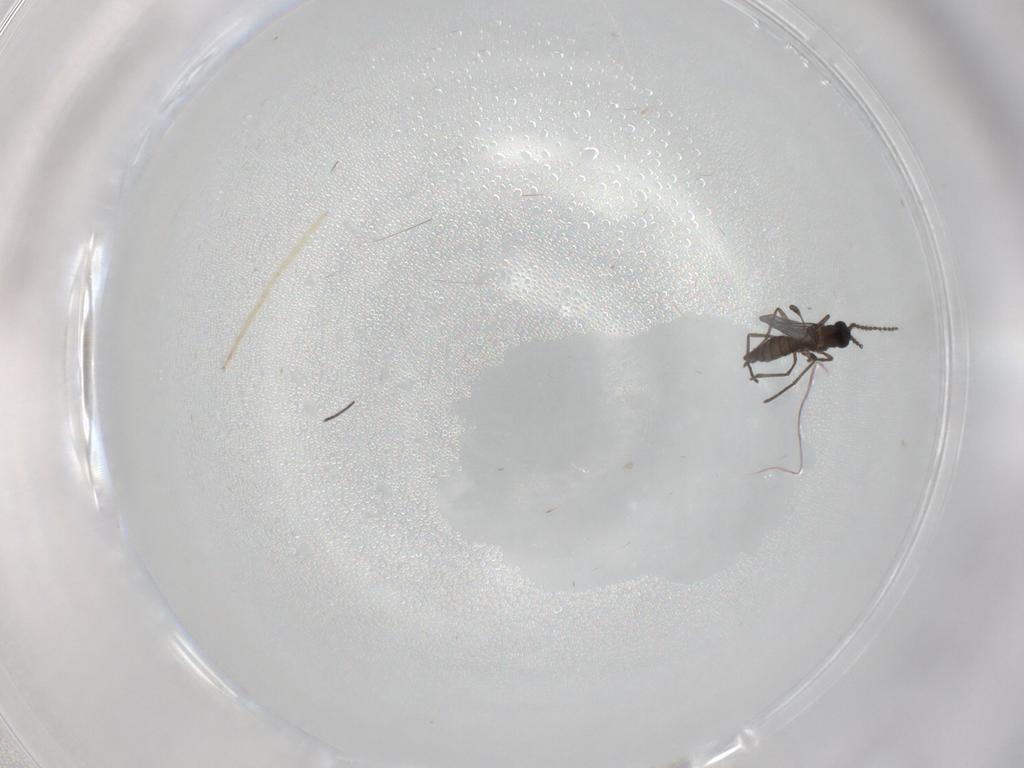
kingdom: Animalia
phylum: Arthropoda
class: Insecta
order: Diptera
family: Chironomidae
